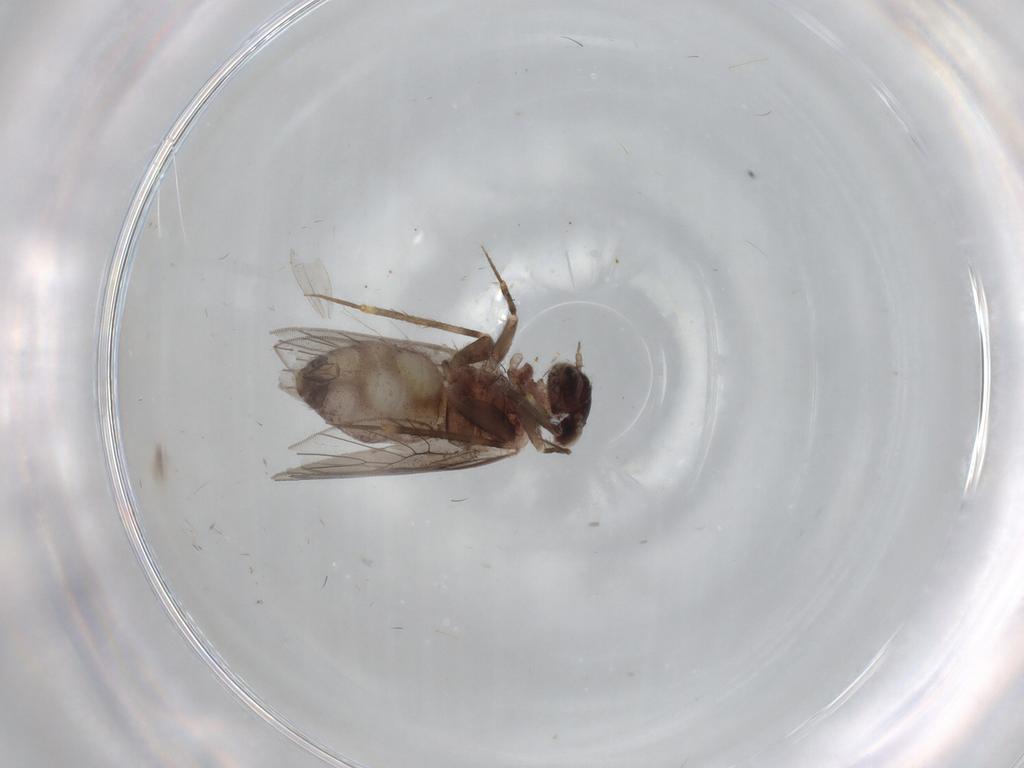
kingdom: Animalia
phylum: Arthropoda
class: Insecta
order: Psocodea
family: Lepidopsocidae
